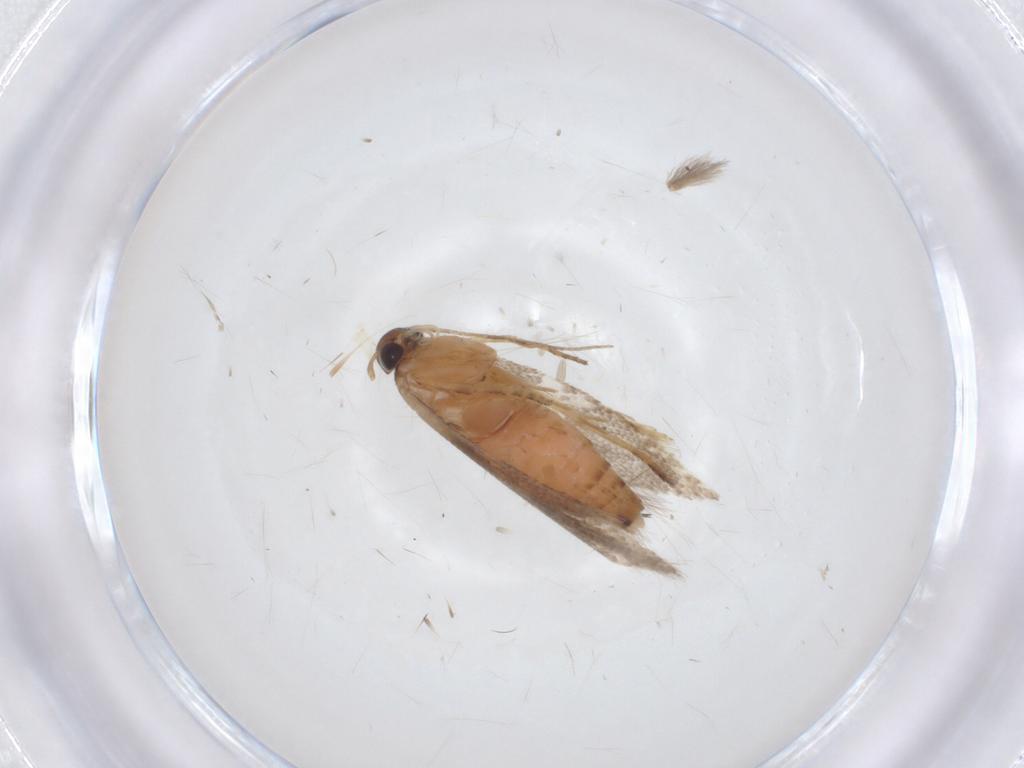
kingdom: Animalia
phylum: Arthropoda
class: Insecta
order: Lepidoptera
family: Gelechiidae
